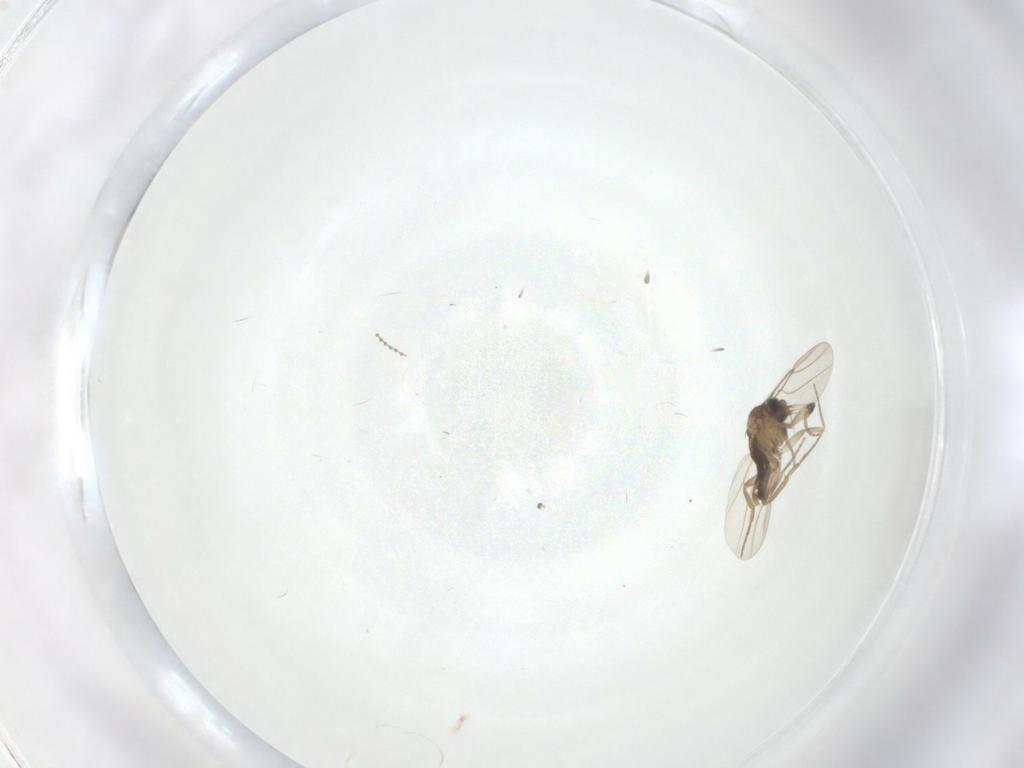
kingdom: Animalia
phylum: Arthropoda
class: Insecta
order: Diptera
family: Phoridae
